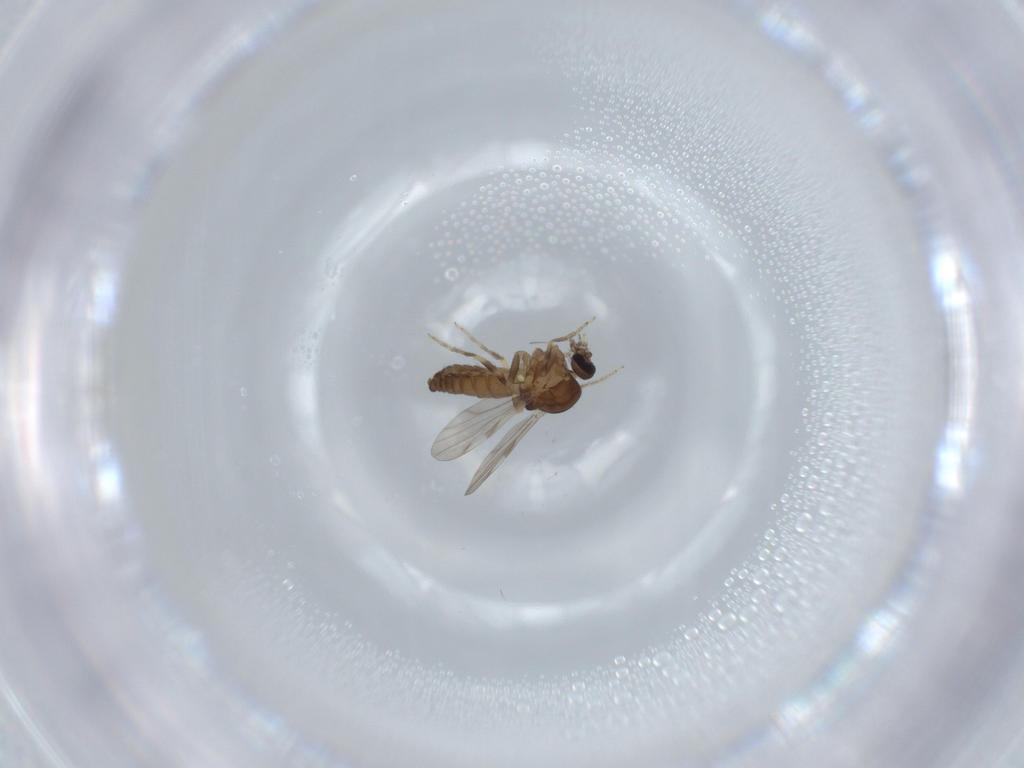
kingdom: Animalia
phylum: Arthropoda
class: Insecta
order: Diptera
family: Ceratopogonidae
